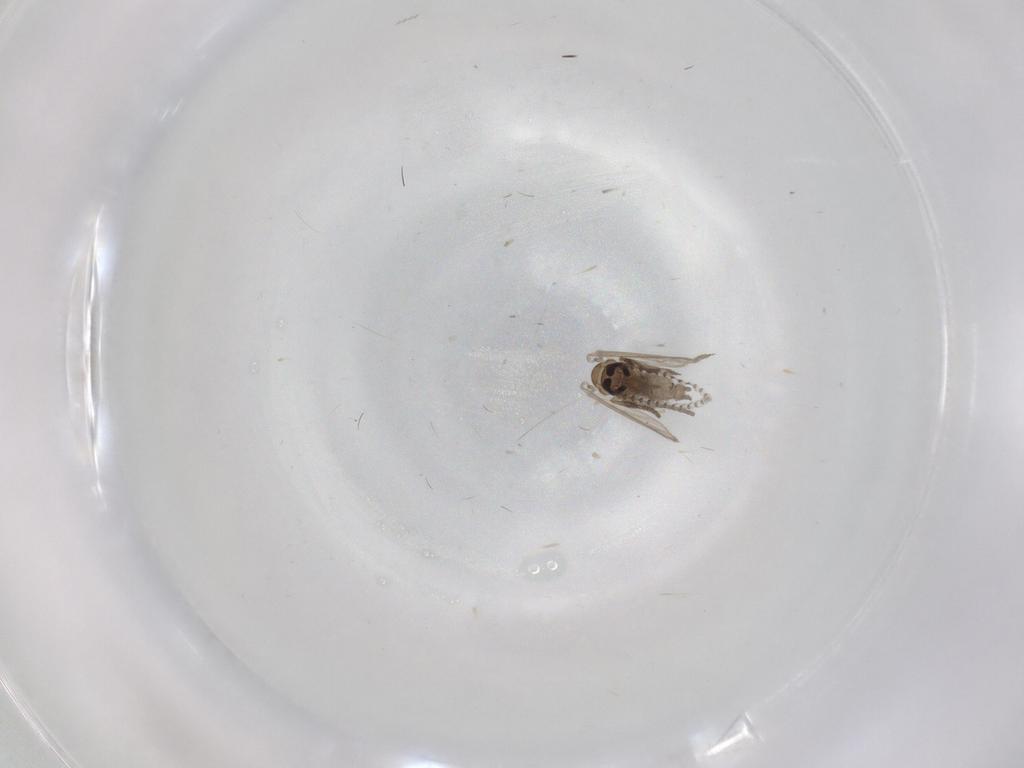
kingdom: Animalia
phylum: Arthropoda
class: Insecta
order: Diptera
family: Psychodidae
